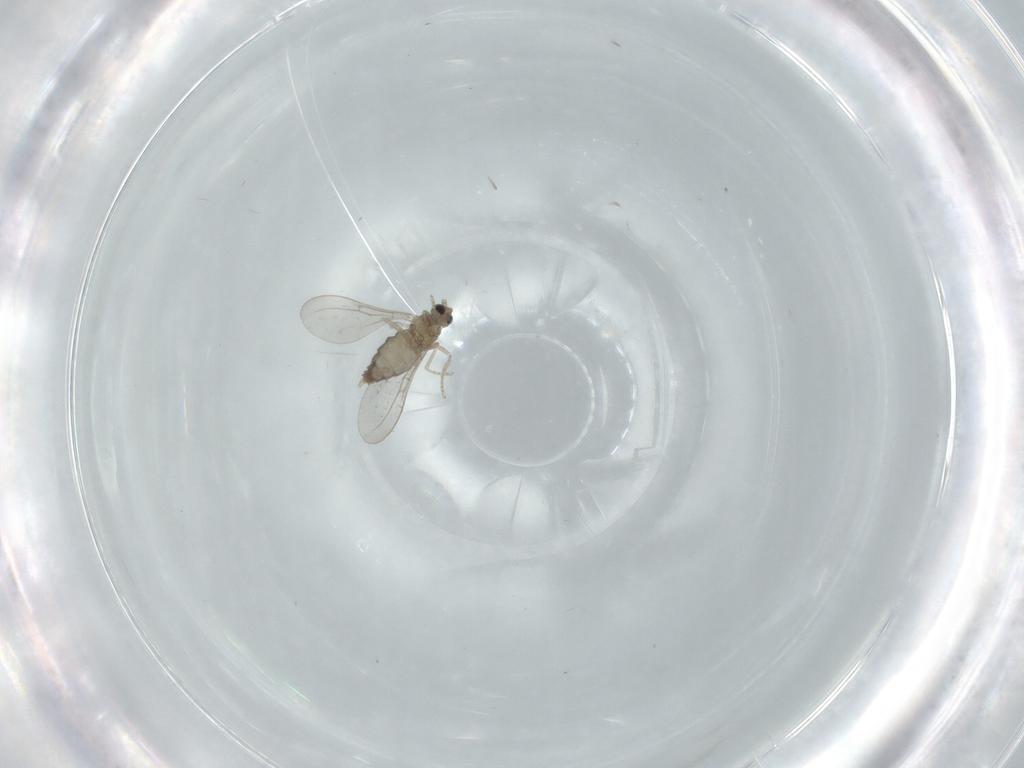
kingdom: Animalia
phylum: Arthropoda
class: Insecta
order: Diptera
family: Cecidomyiidae
